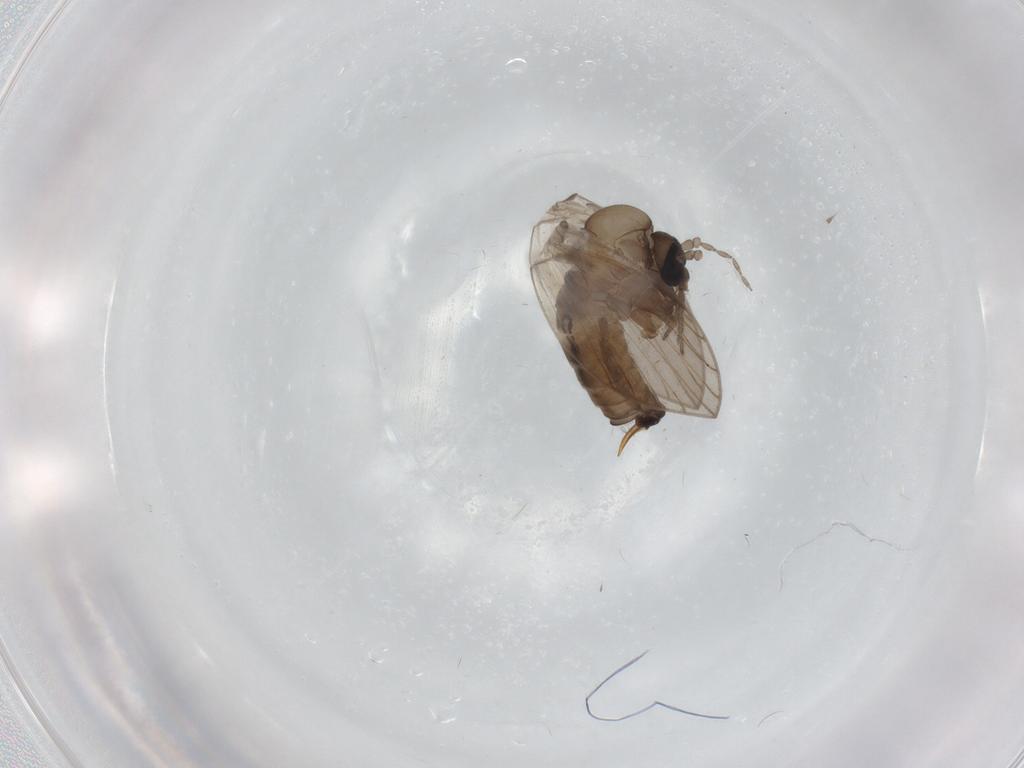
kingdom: Animalia
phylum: Arthropoda
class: Insecta
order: Diptera
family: Psychodidae
